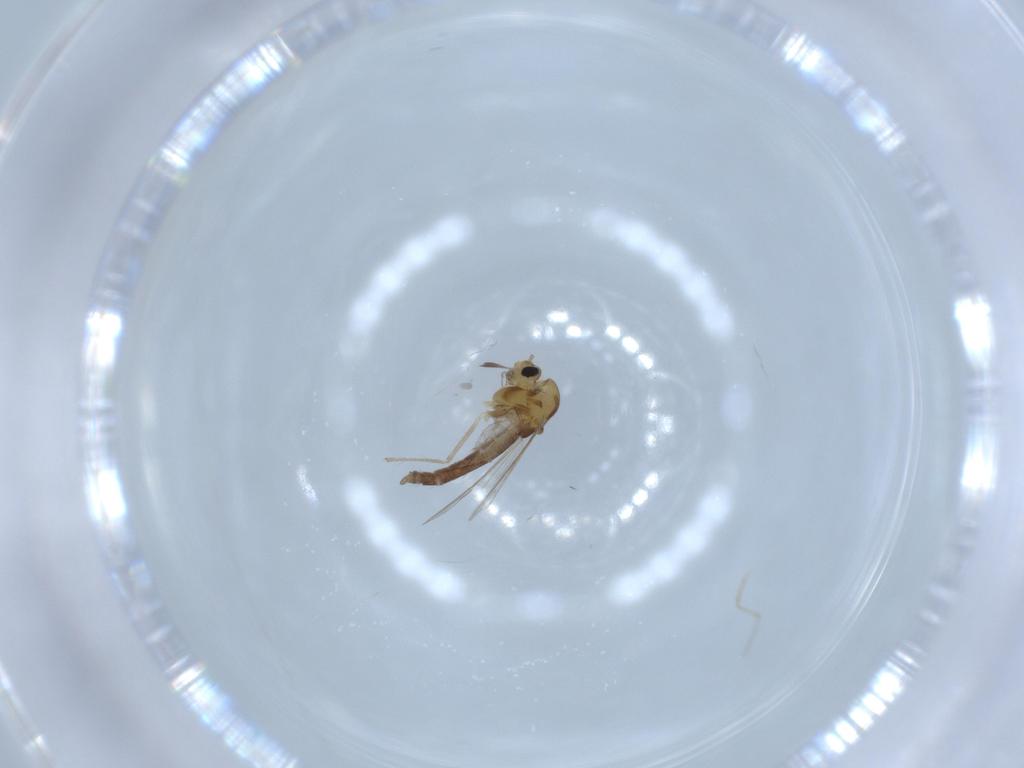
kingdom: Animalia
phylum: Arthropoda
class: Insecta
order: Diptera
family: Chironomidae
